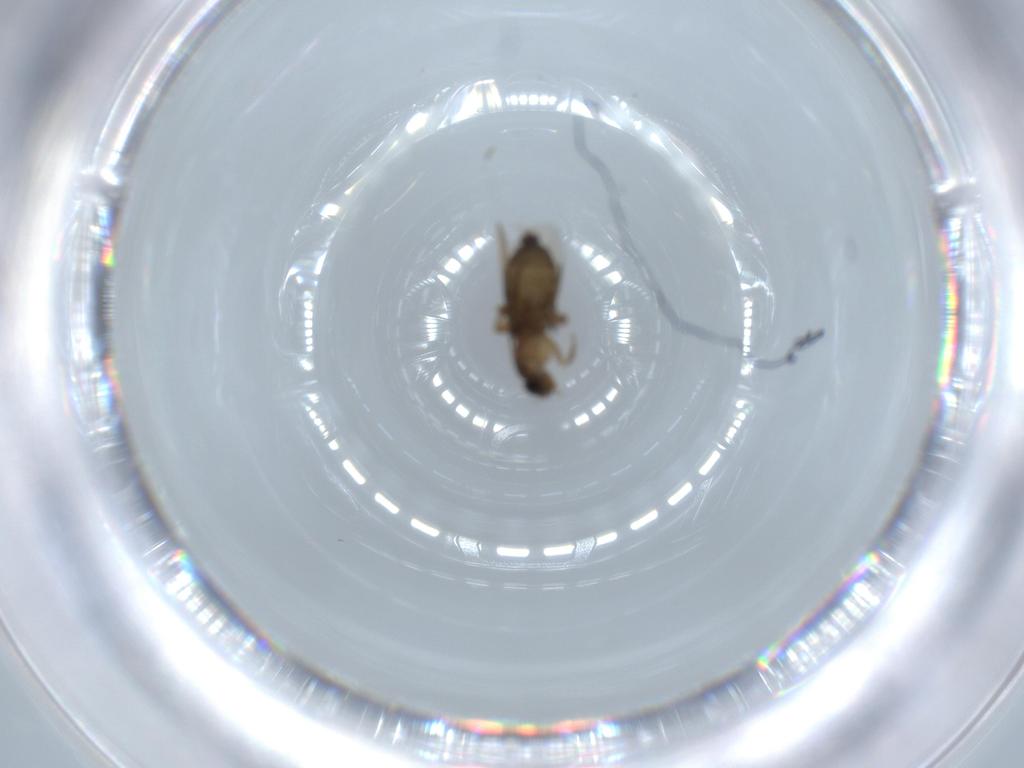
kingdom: Animalia
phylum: Arthropoda
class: Insecta
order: Diptera
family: Phoridae
